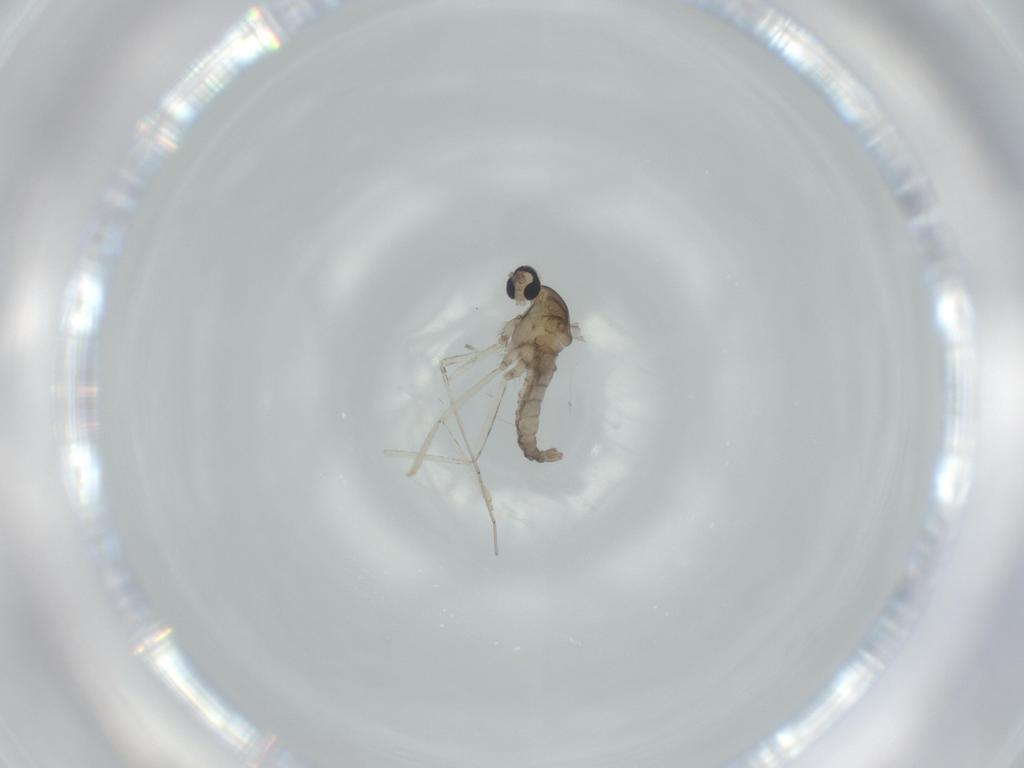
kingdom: Animalia
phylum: Arthropoda
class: Insecta
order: Diptera
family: Cecidomyiidae
